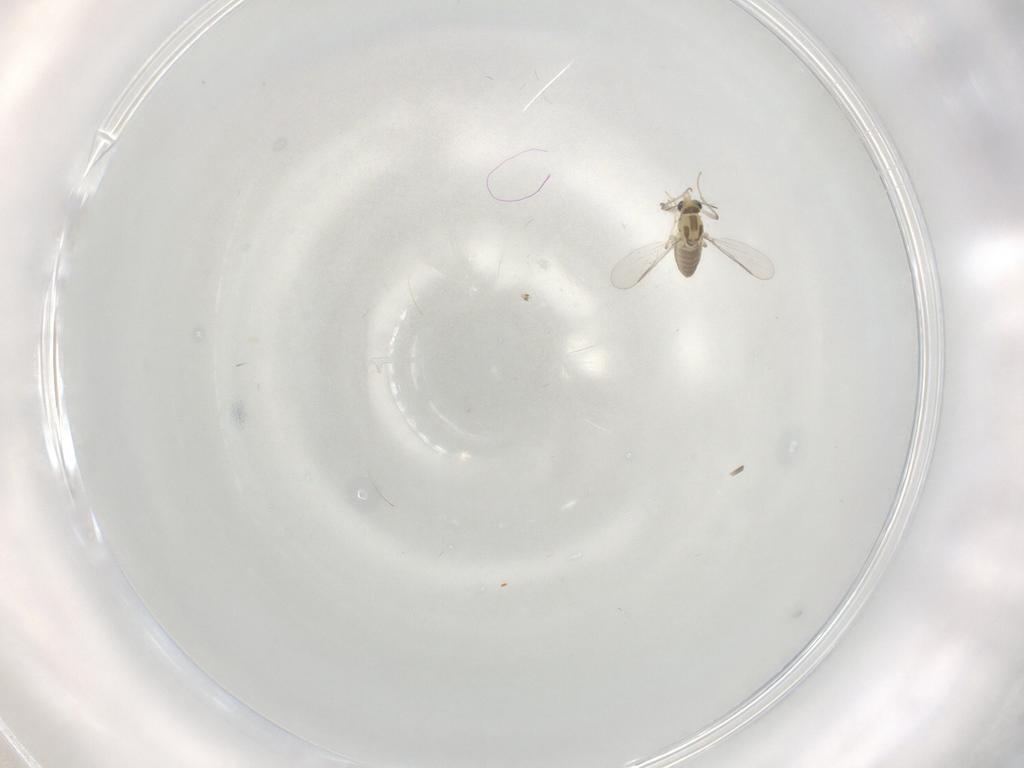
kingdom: Animalia
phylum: Arthropoda
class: Insecta
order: Diptera
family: Chironomidae
